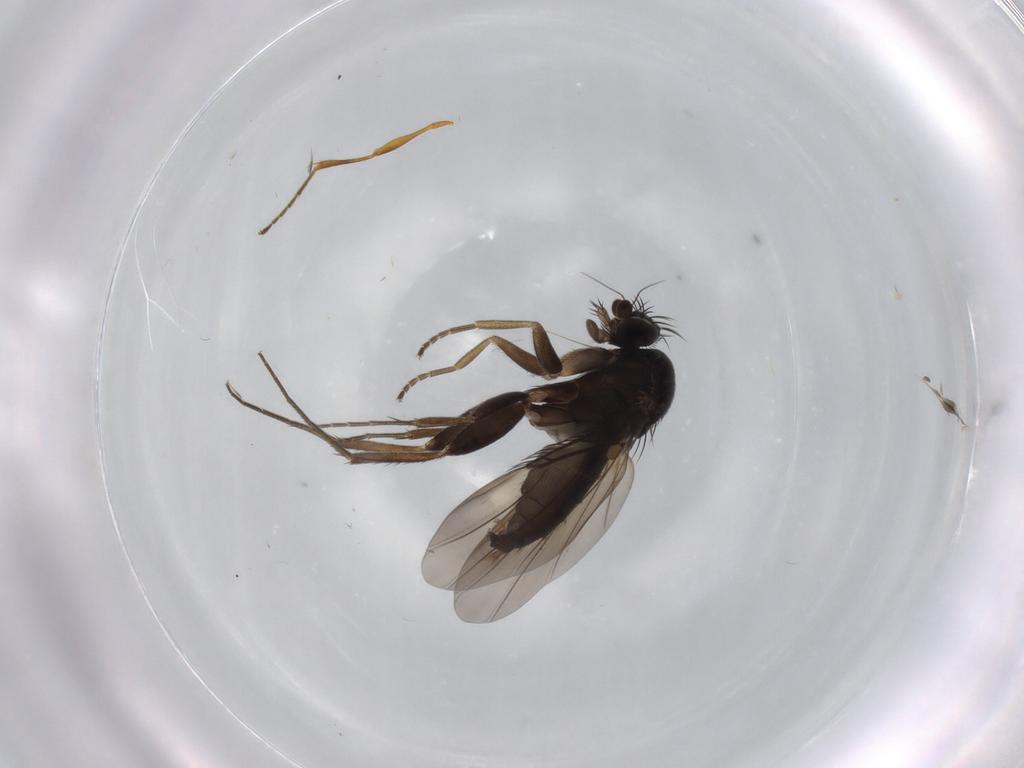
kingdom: Animalia
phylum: Arthropoda
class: Insecta
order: Diptera
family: Phoridae
